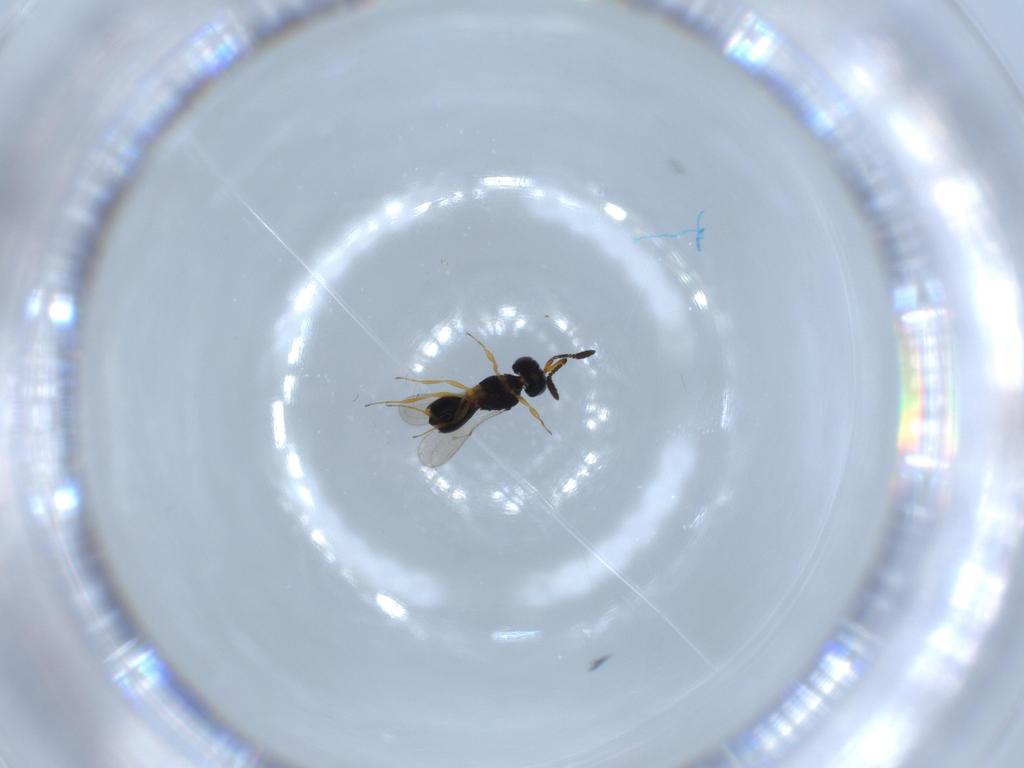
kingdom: Animalia
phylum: Arthropoda
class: Insecta
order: Hymenoptera
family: Scelionidae
